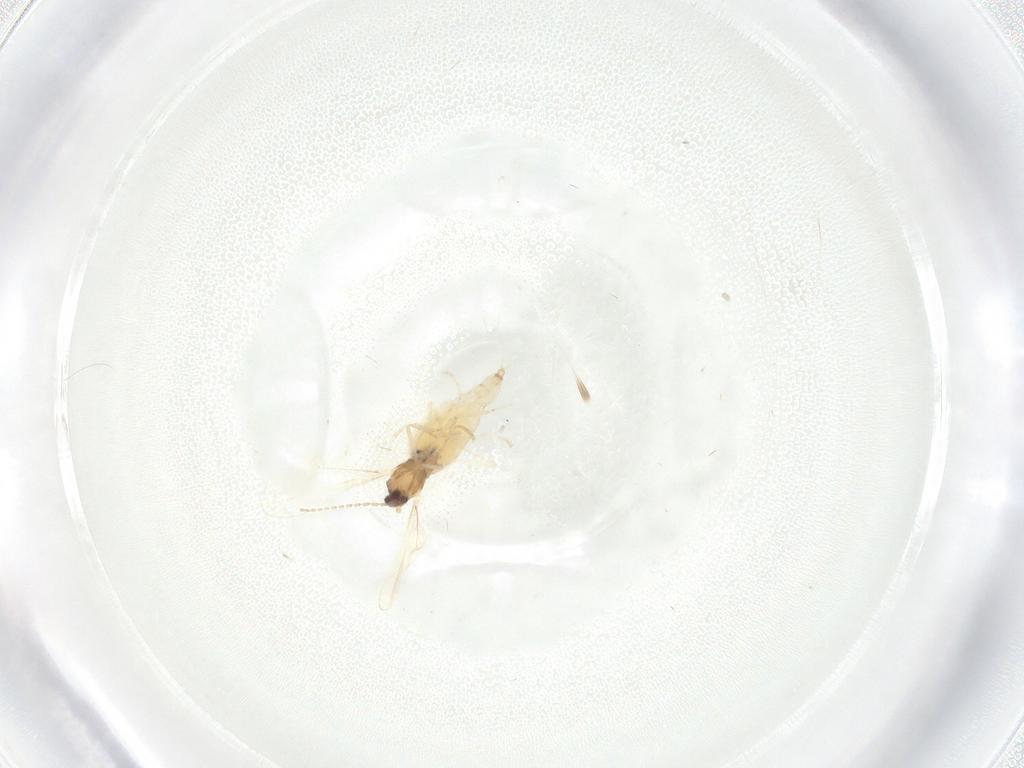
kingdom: Animalia
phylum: Arthropoda
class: Insecta
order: Diptera
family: Cecidomyiidae
